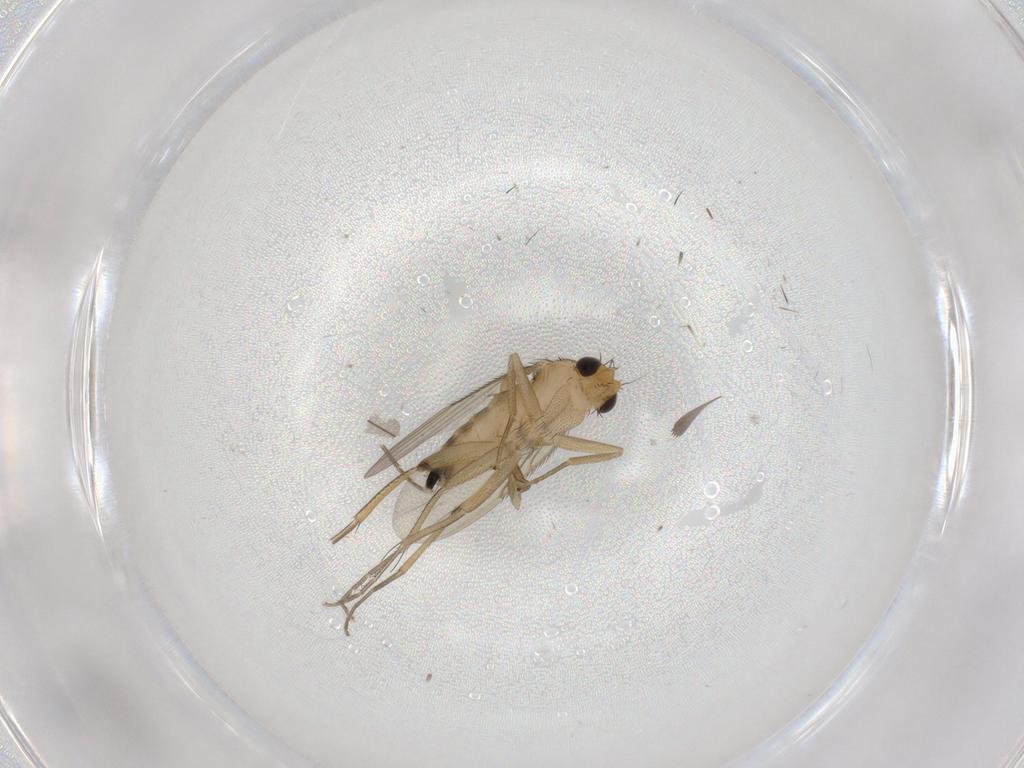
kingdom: Animalia
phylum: Arthropoda
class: Insecta
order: Diptera
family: Phoridae
